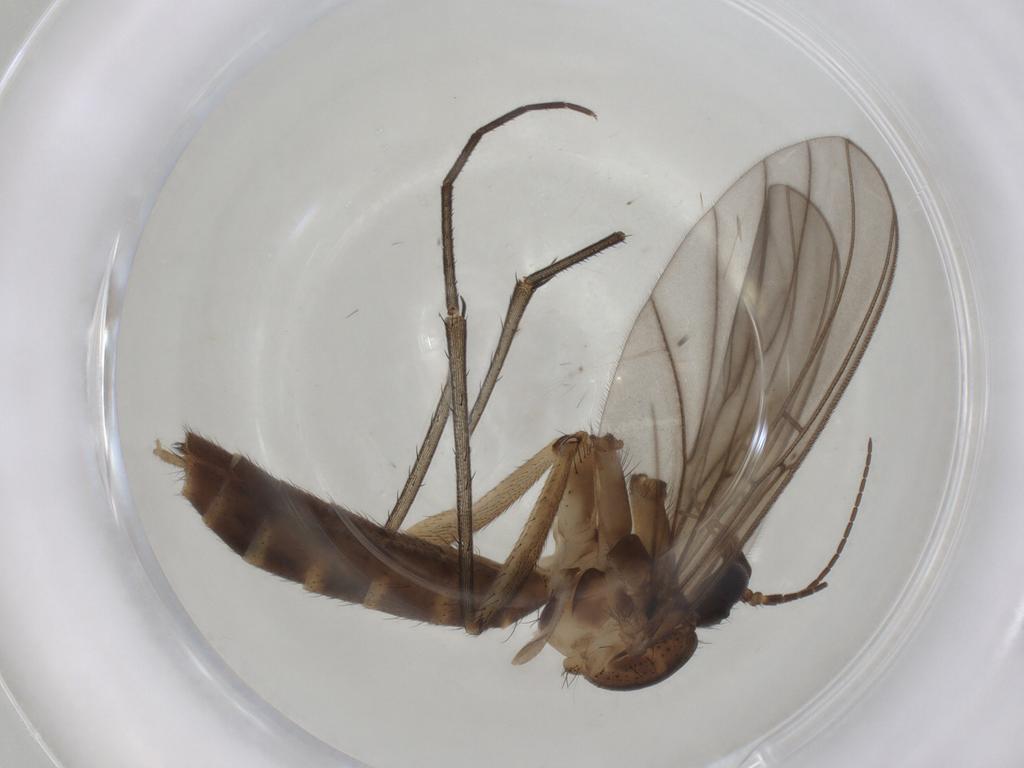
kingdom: Animalia
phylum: Arthropoda
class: Insecta
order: Diptera
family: Mycetophilidae
